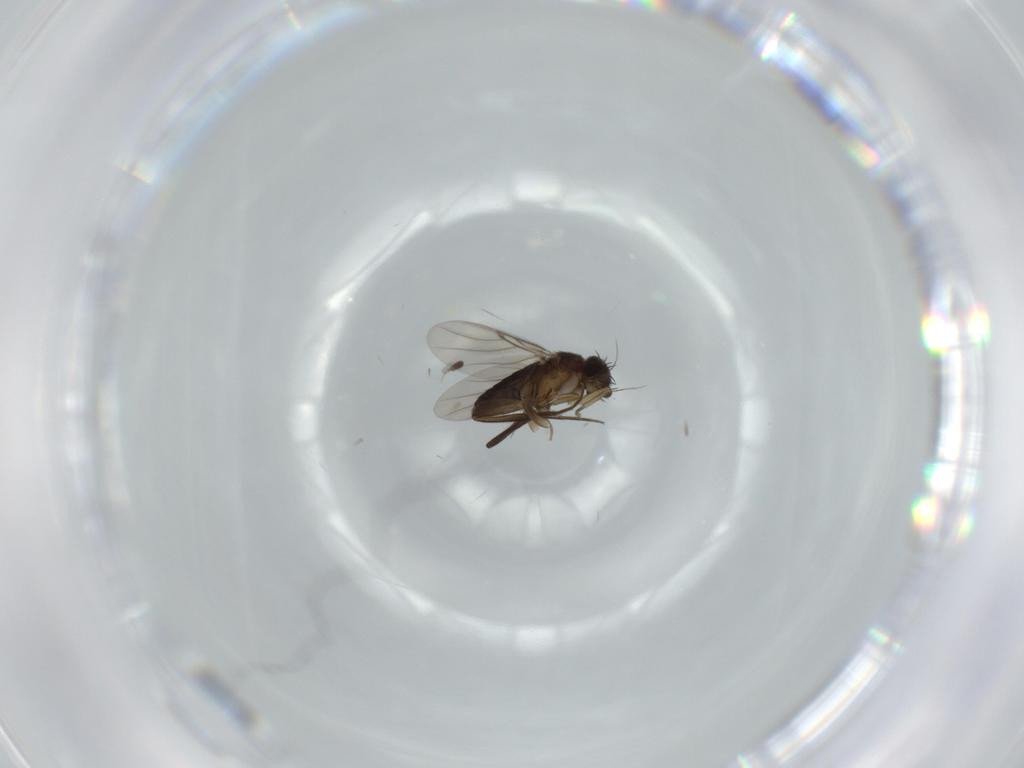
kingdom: Animalia
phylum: Arthropoda
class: Insecta
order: Diptera
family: Phoridae
